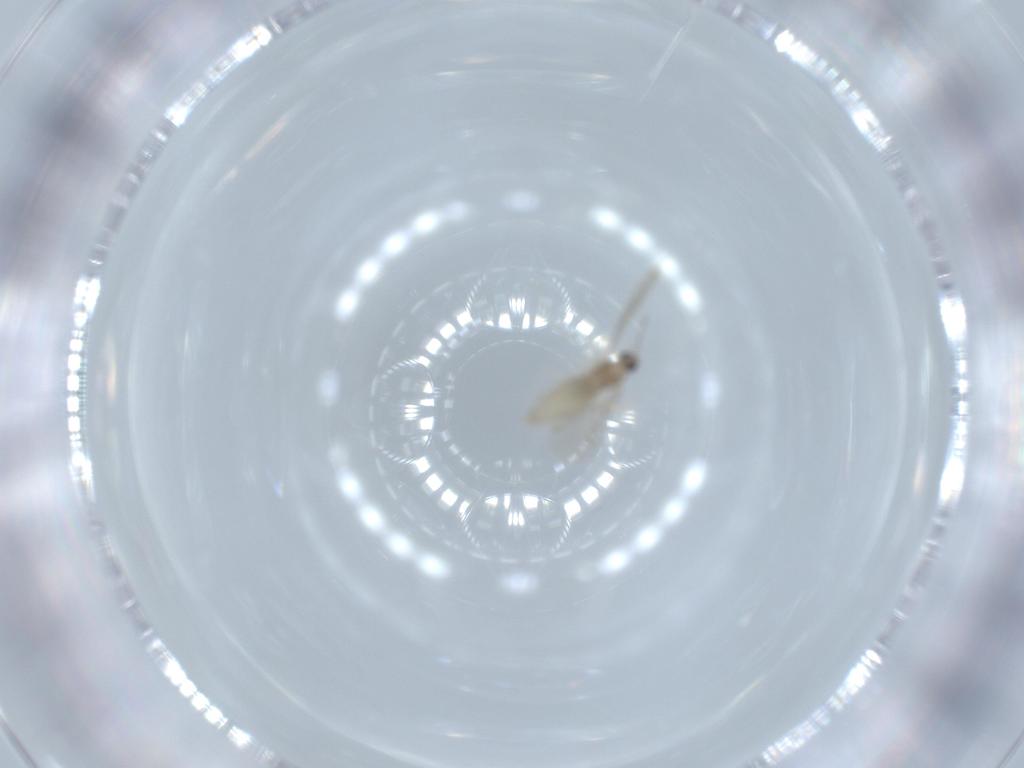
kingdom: Animalia
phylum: Arthropoda
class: Insecta
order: Diptera
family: Cecidomyiidae
